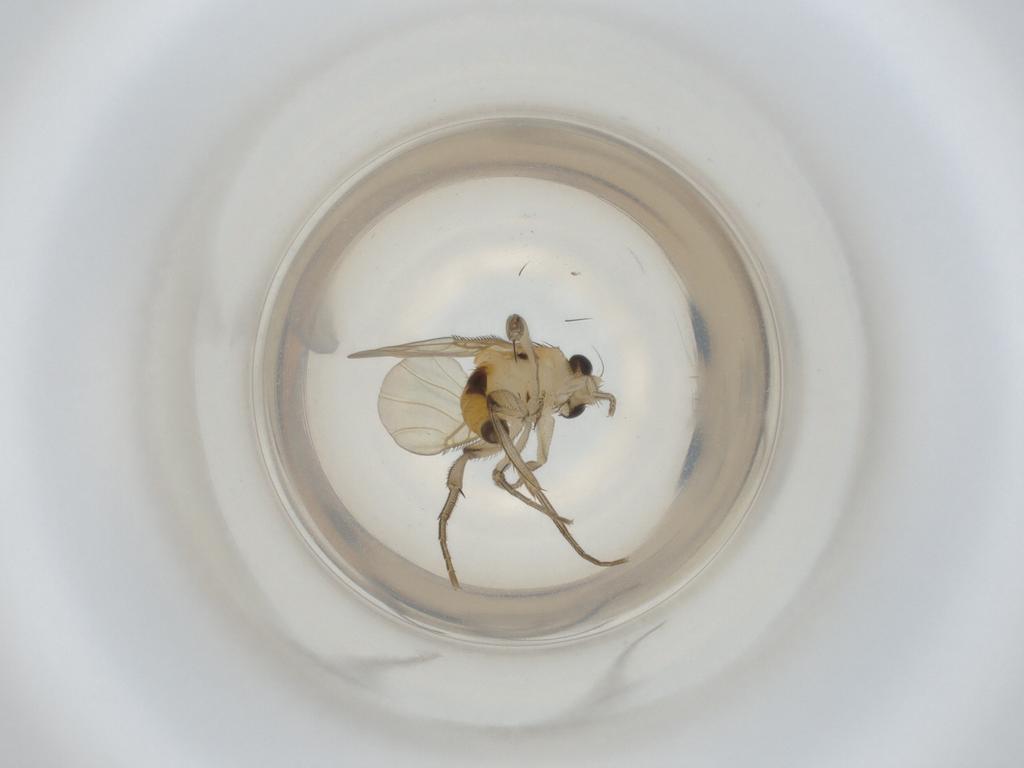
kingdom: Animalia
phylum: Arthropoda
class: Insecta
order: Diptera
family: Phoridae
